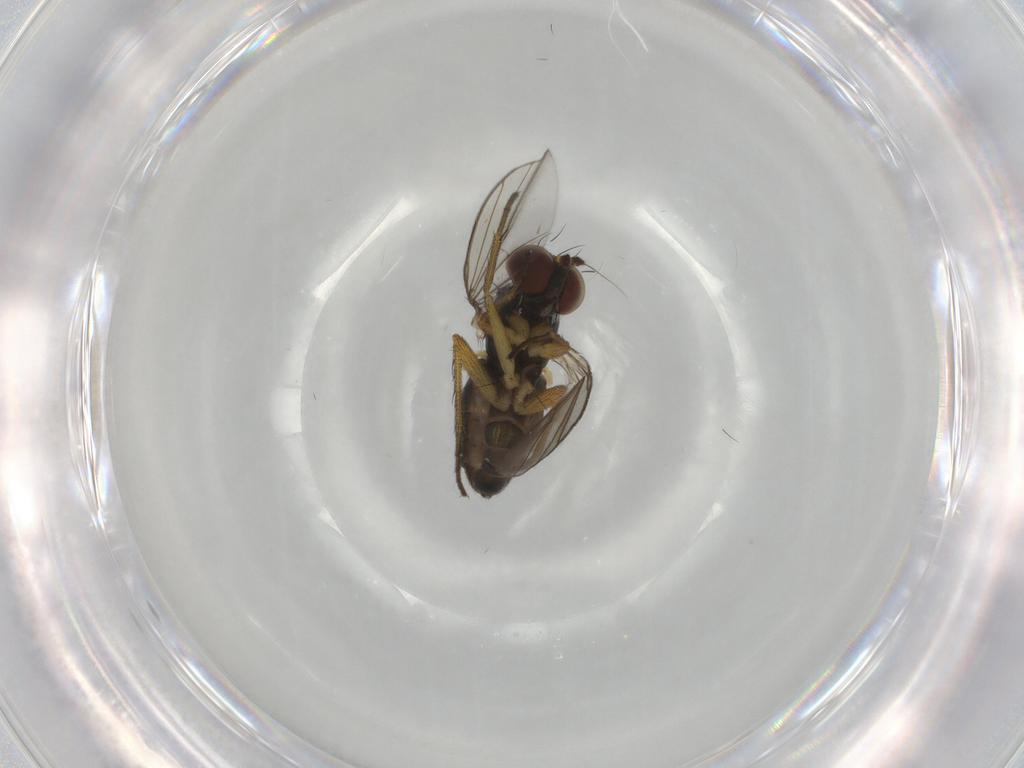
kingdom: Animalia
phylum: Arthropoda
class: Insecta
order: Diptera
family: Dolichopodidae
